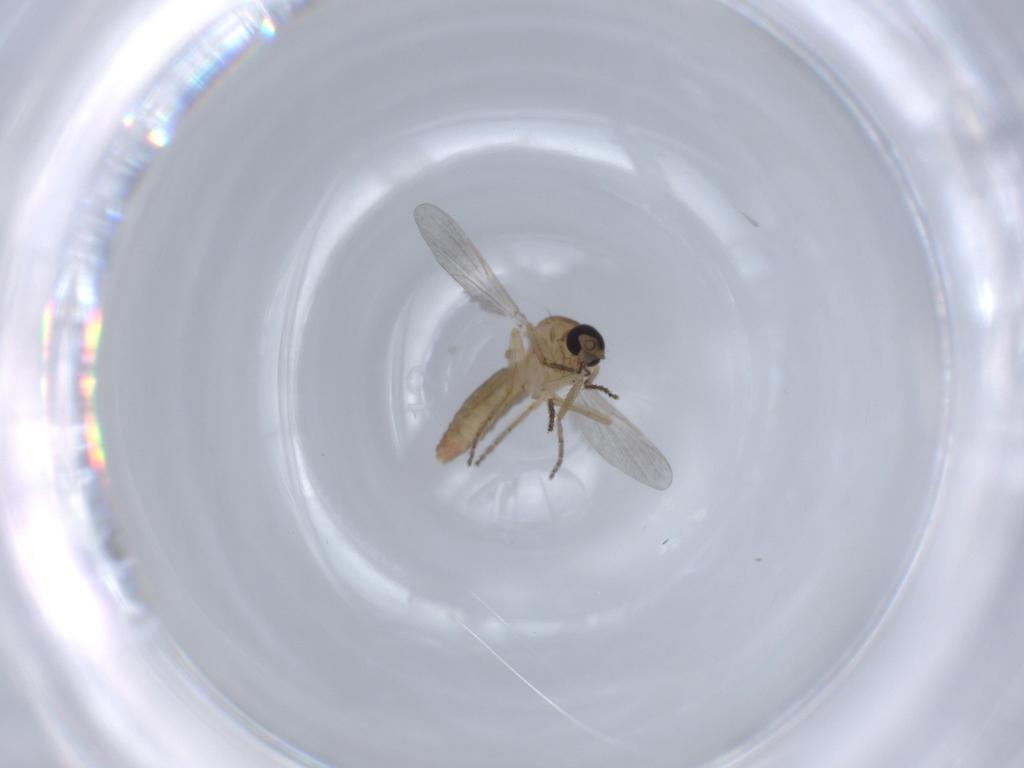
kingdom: Animalia
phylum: Arthropoda
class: Insecta
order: Diptera
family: Ceratopogonidae
